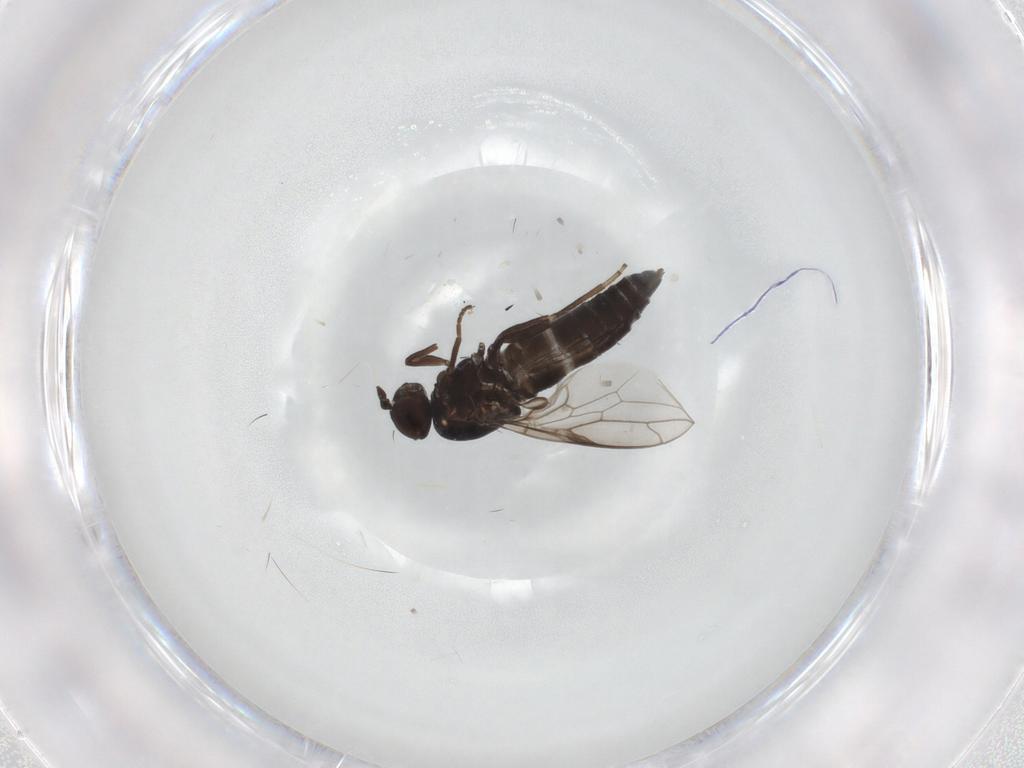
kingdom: Animalia
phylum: Arthropoda
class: Insecta
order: Diptera
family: Scenopinidae
